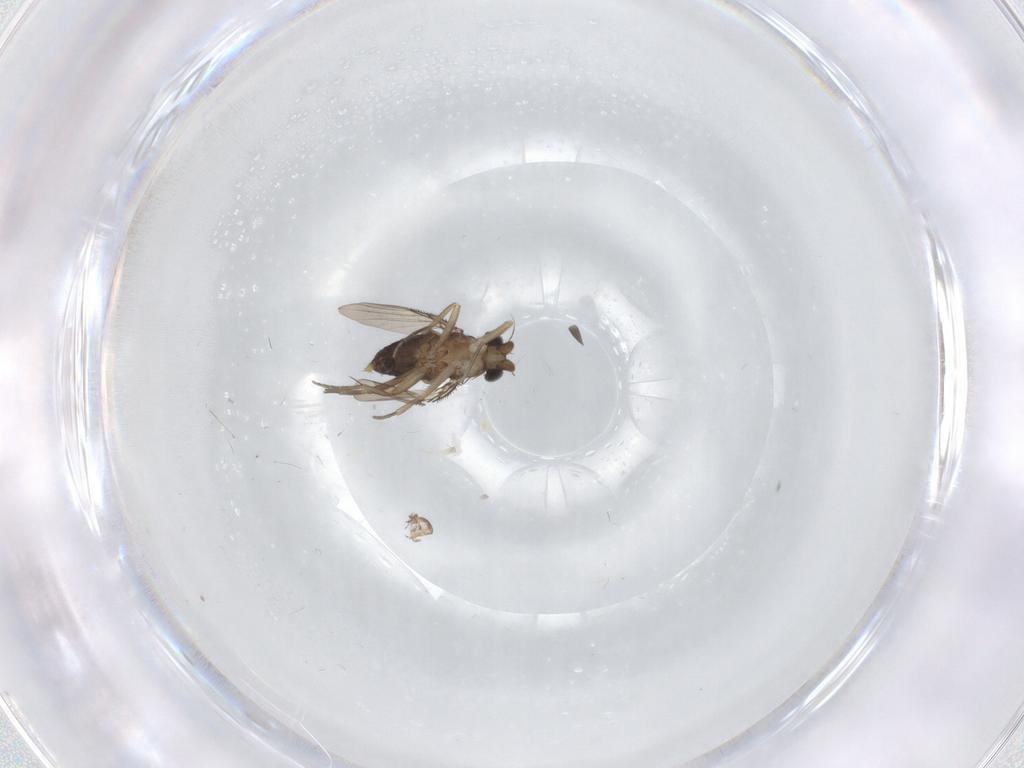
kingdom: Animalia
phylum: Arthropoda
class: Insecta
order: Diptera
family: Phoridae
